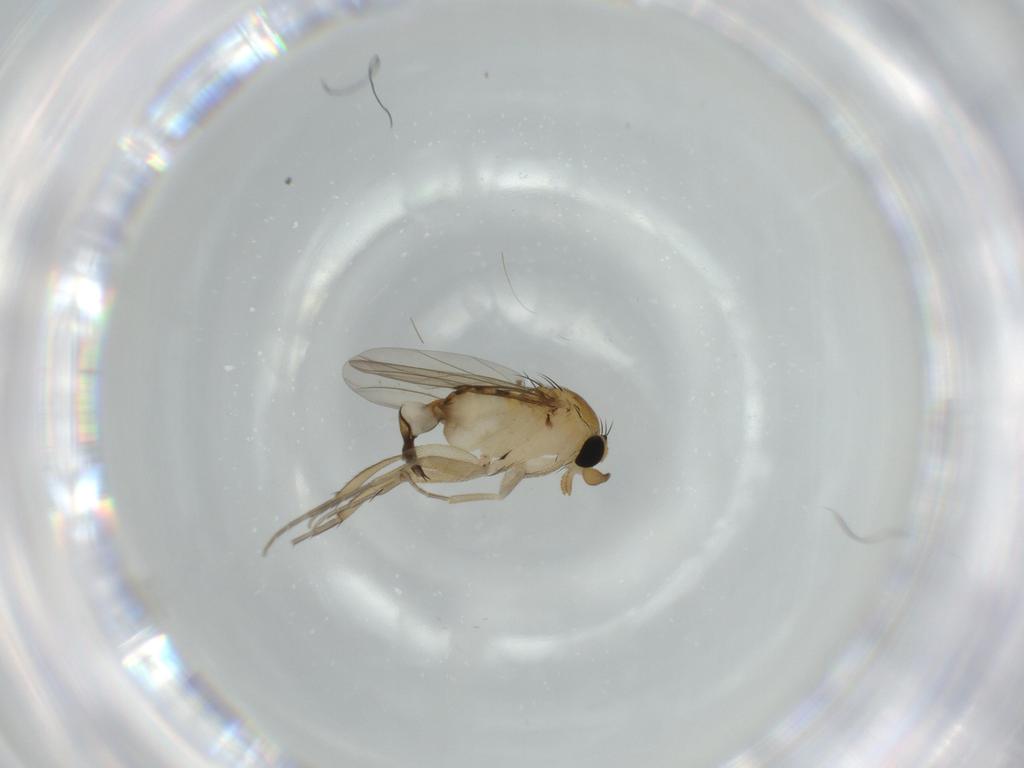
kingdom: Animalia
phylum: Arthropoda
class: Insecta
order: Diptera
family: Phoridae
